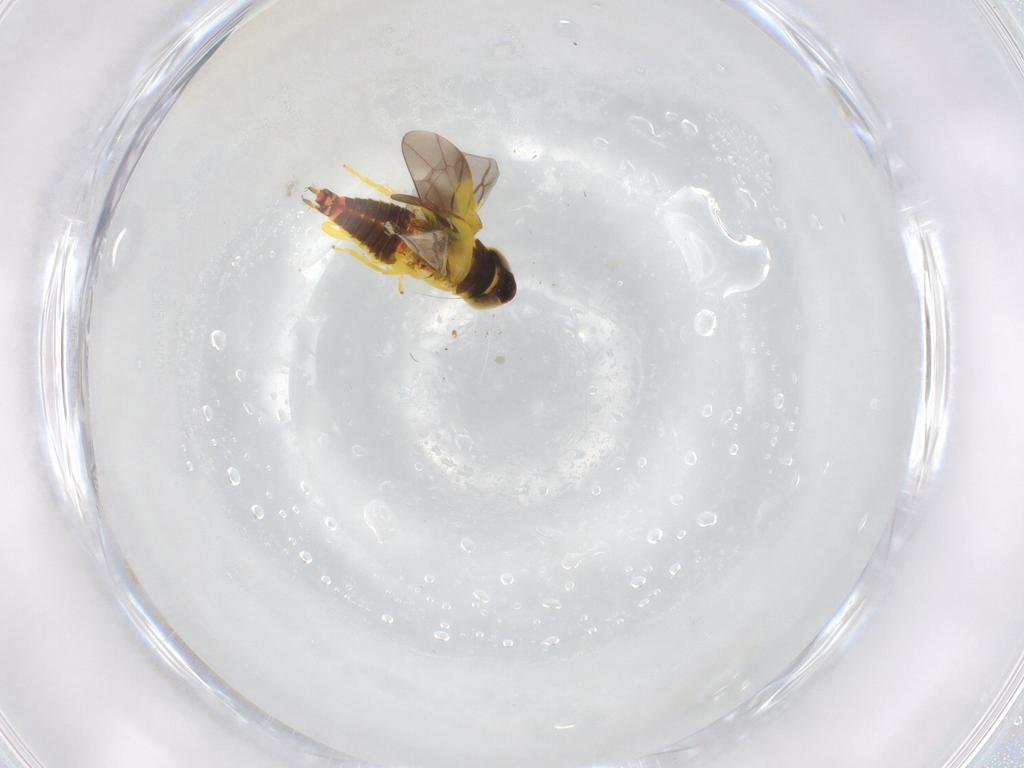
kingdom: Animalia
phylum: Arthropoda
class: Insecta
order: Hemiptera
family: Cicadellidae
